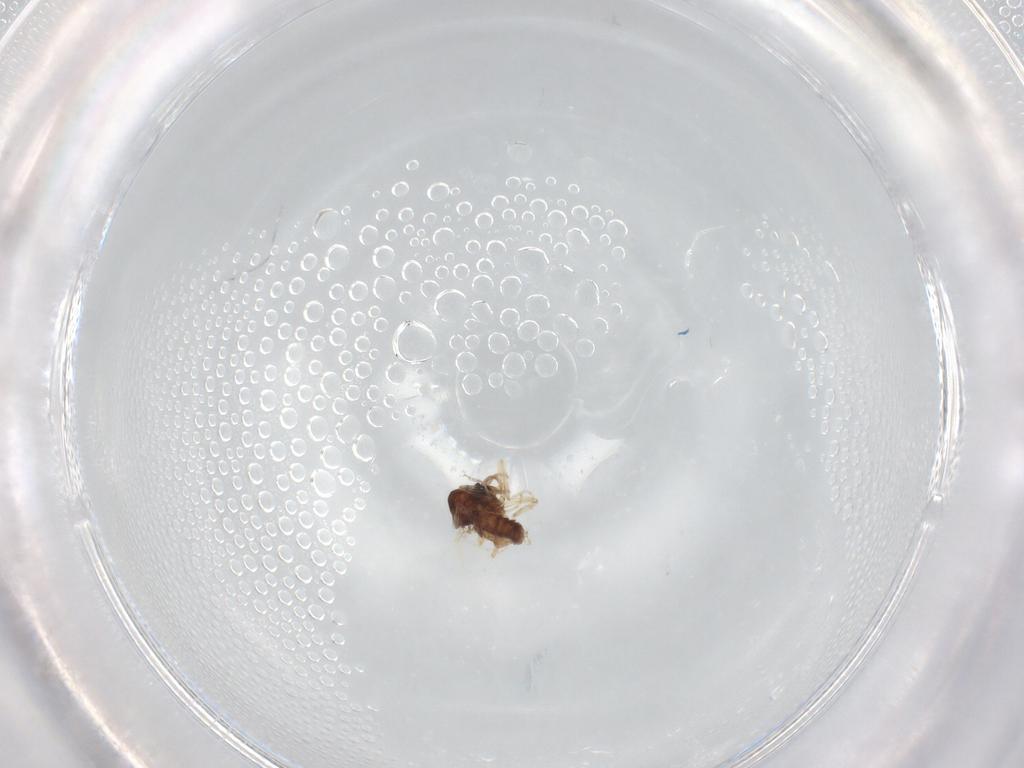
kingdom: Animalia
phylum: Arthropoda
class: Insecta
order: Diptera
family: Ceratopogonidae
